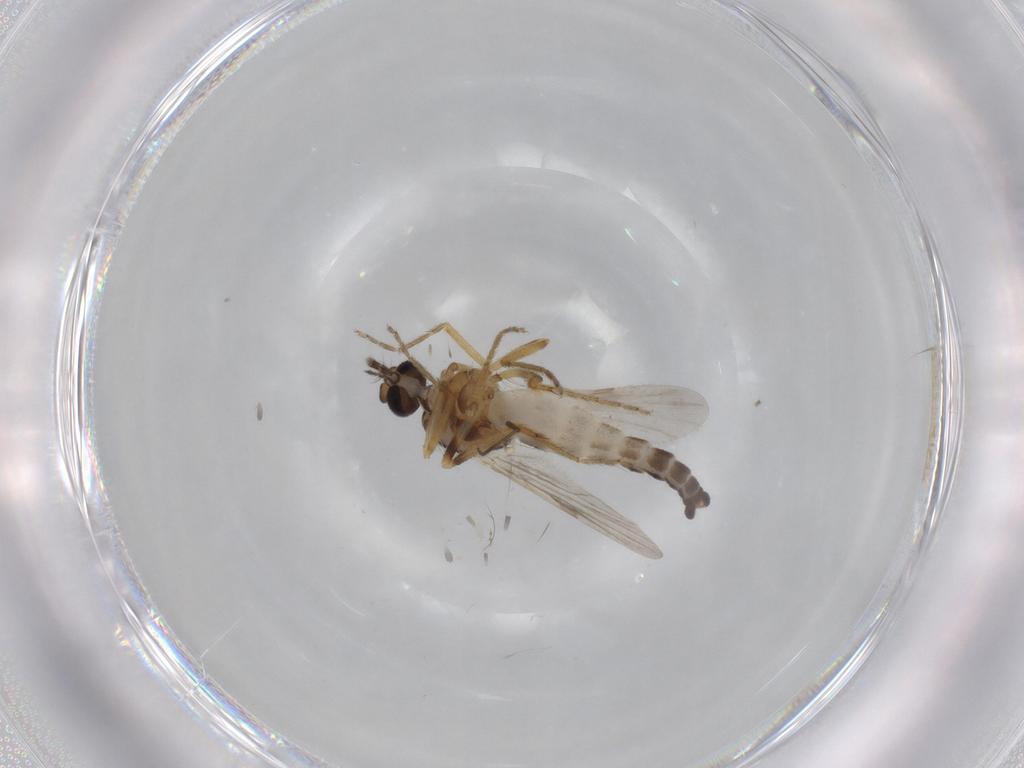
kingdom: Animalia
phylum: Arthropoda
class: Insecta
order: Diptera
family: Ceratopogonidae
